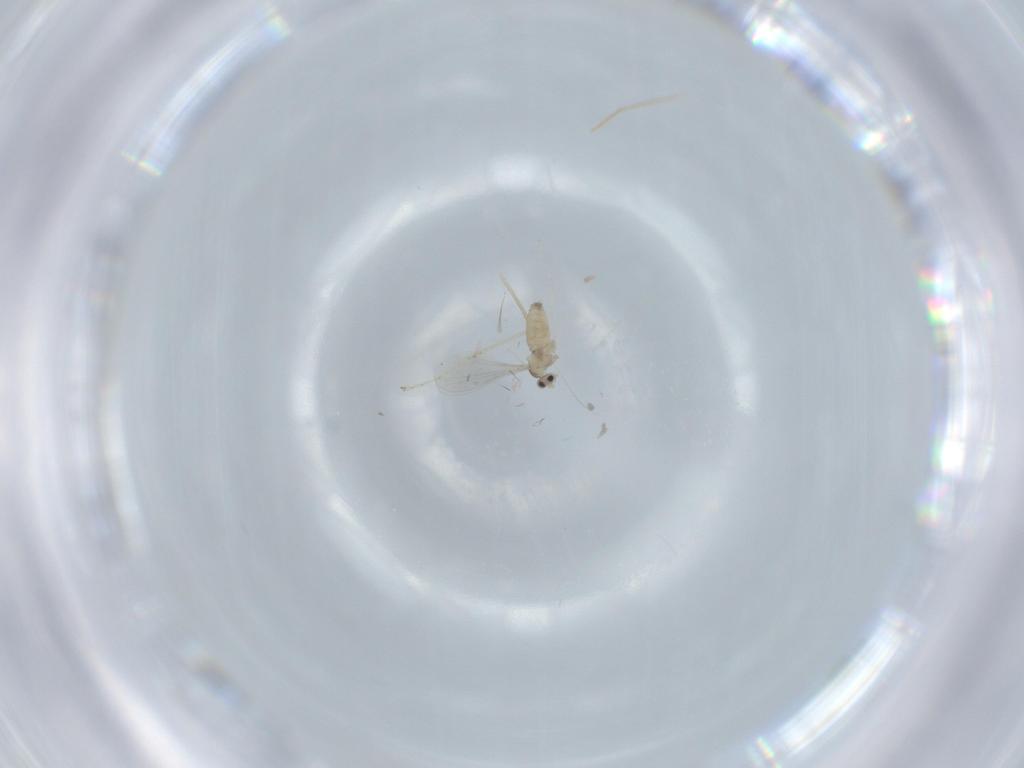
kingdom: Animalia
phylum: Arthropoda
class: Insecta
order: Diptera
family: Cecidomyiidae
